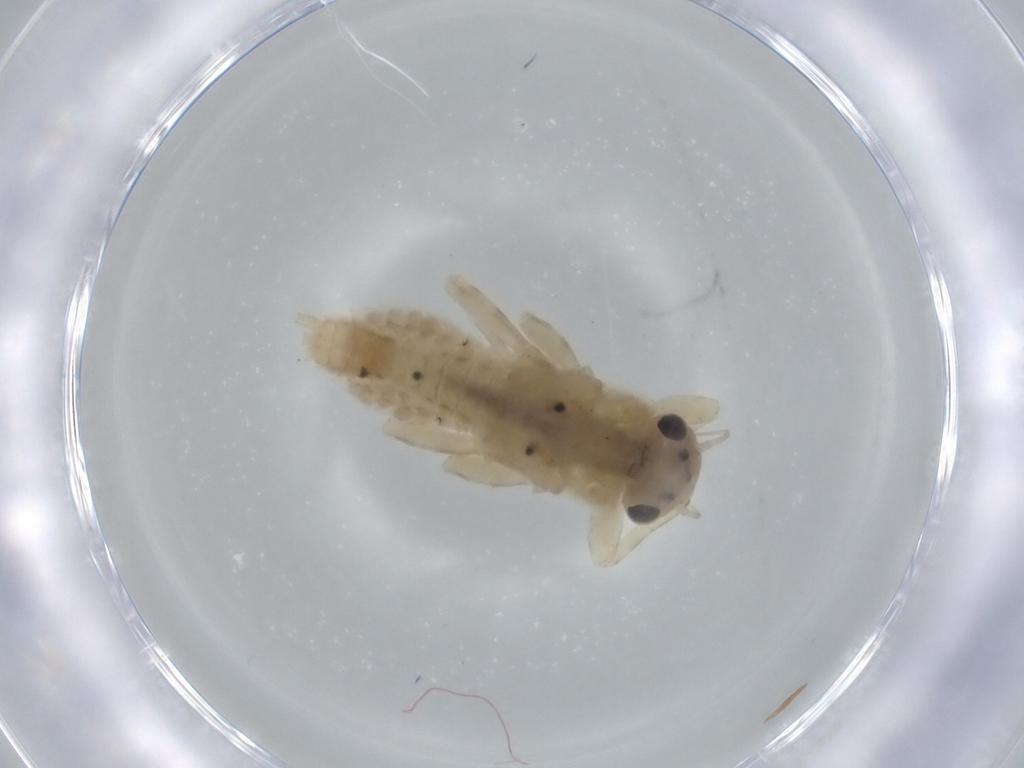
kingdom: Animalia
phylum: Arthropoda
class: Insecta
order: Ephemeroptera
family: Ephemerellidae
